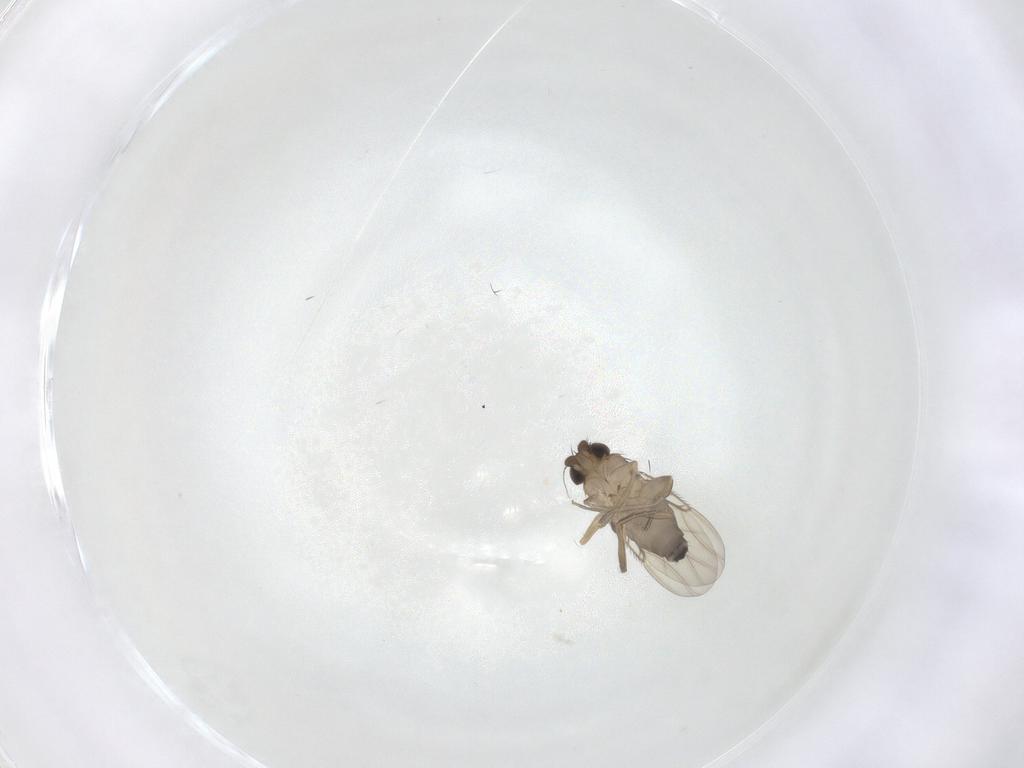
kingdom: Animalia
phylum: Arthropoda
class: Insecta
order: Diptera
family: Phoridae
